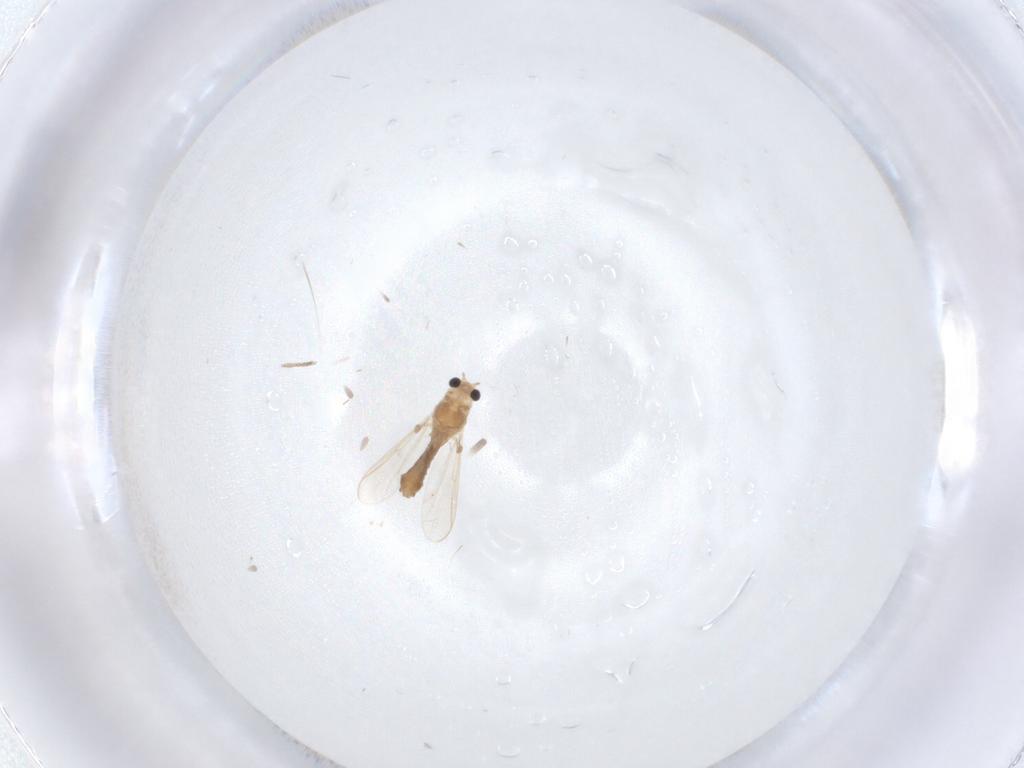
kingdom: Animalia
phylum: Arthropoda
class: Insecta
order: Diptera
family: Chironomidae
